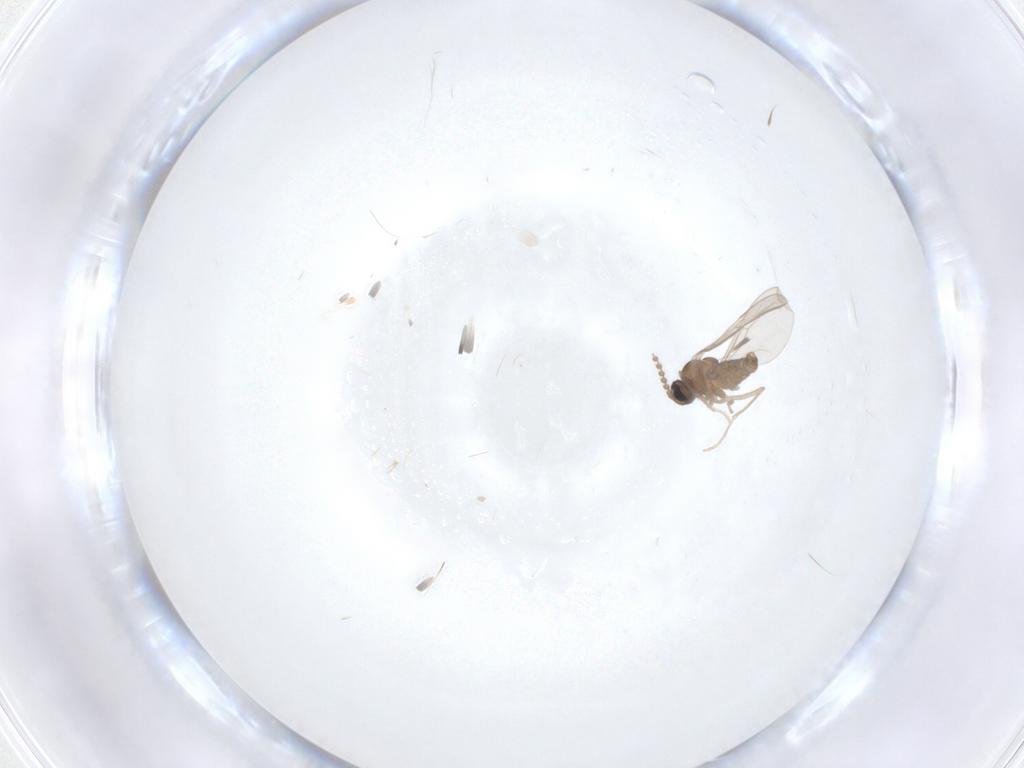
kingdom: Animalia
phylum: Arthropoda
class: Insecta
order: Diptera
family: Cecidomyiidae
